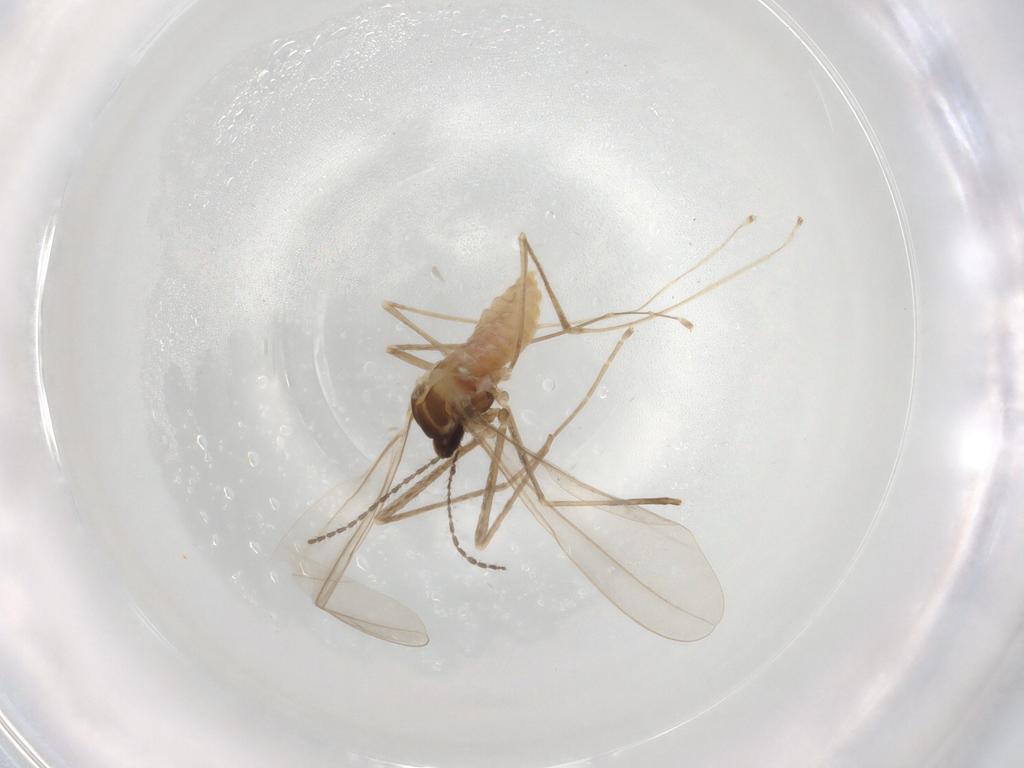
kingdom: Animalia
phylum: Arthropoda
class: Insecta
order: Diptera
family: Cecidomyiidae
